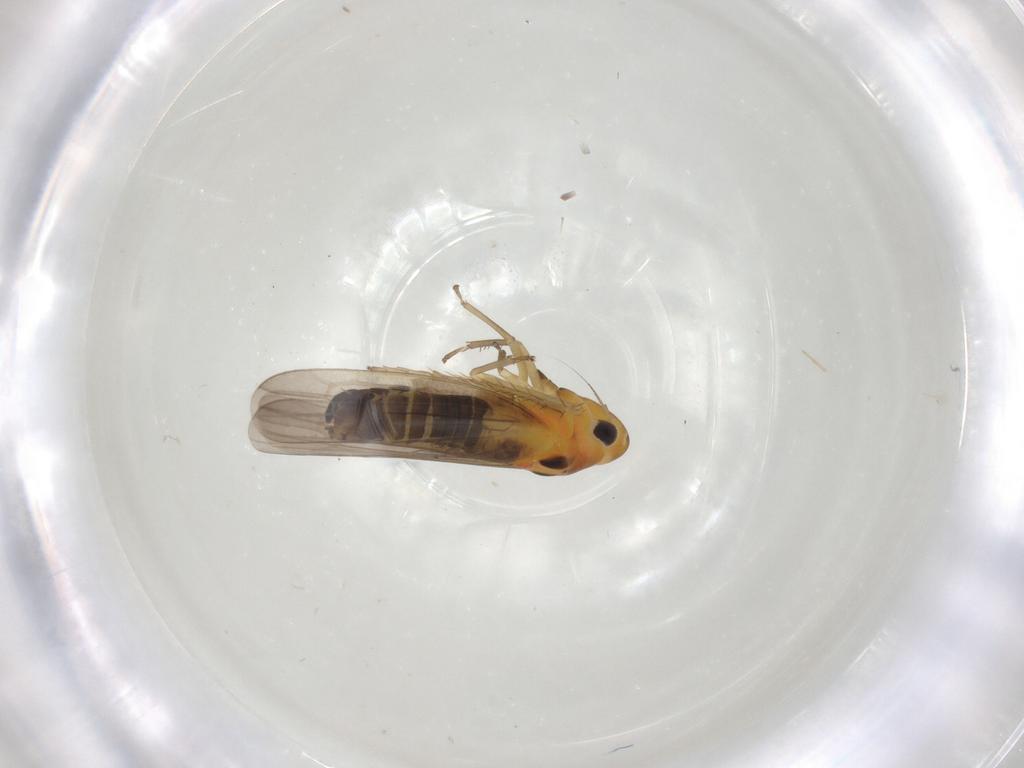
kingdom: Animalia
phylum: Arthropoda
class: Insecta
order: Hemiptera
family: Cicadellidae
